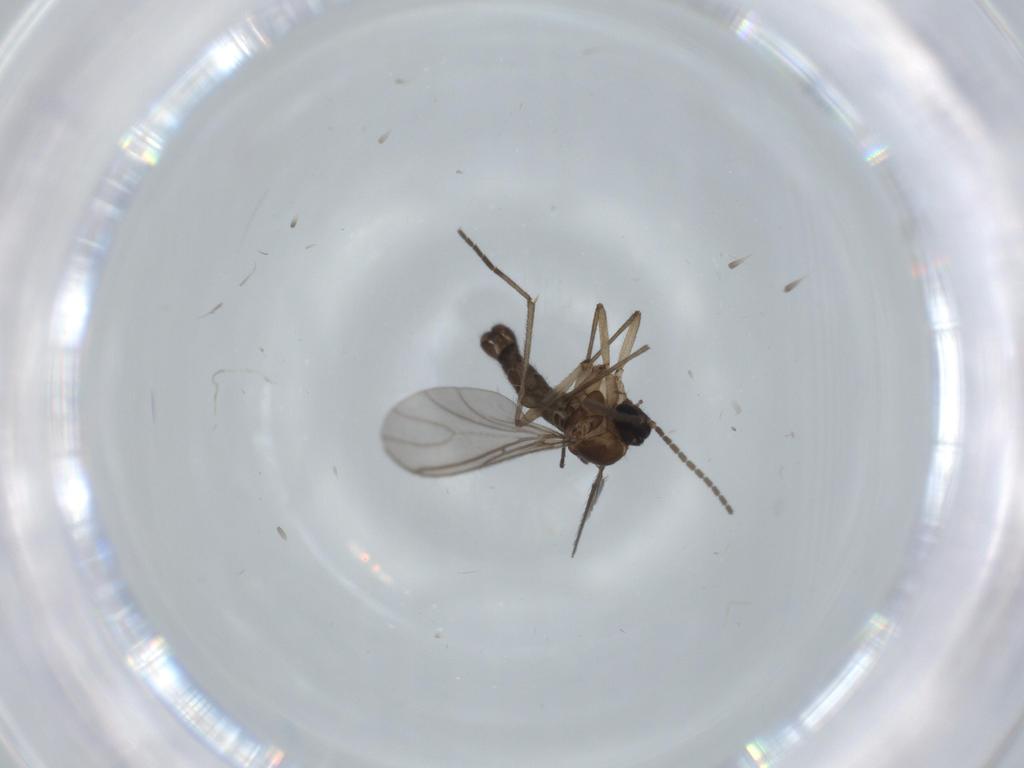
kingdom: Animalia
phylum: Arthropoda
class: Insecta
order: Diptera
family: Sciaridae
